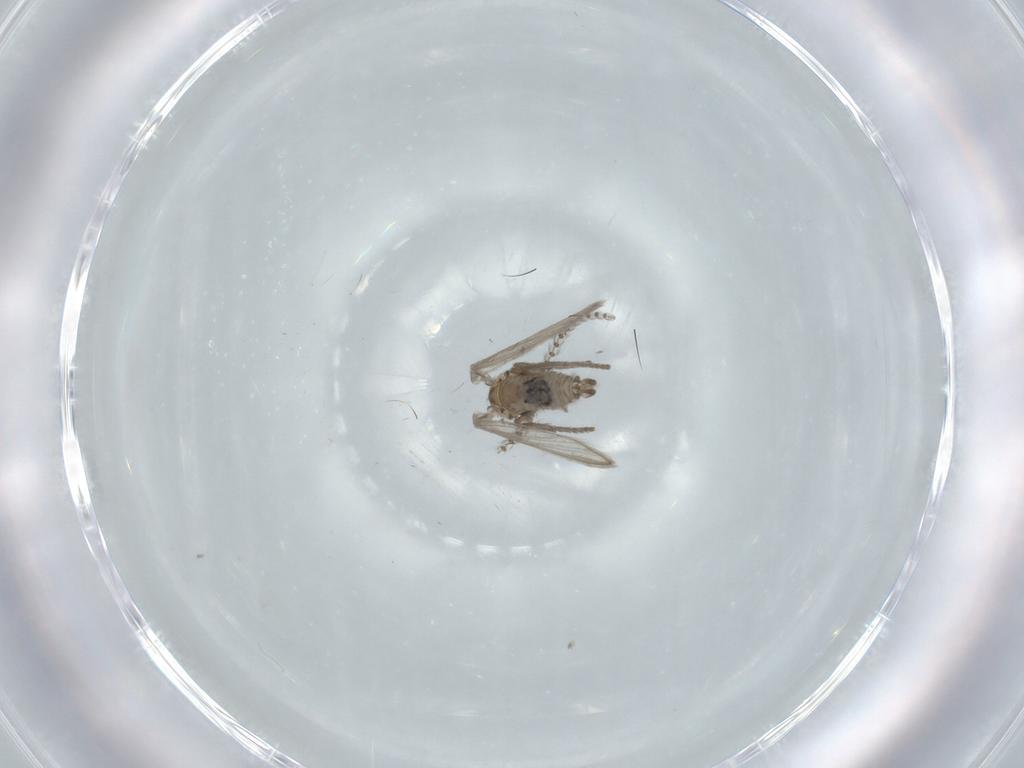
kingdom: Animalia
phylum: Arthropoda
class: Insecta
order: Diptera
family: Psychodidae
